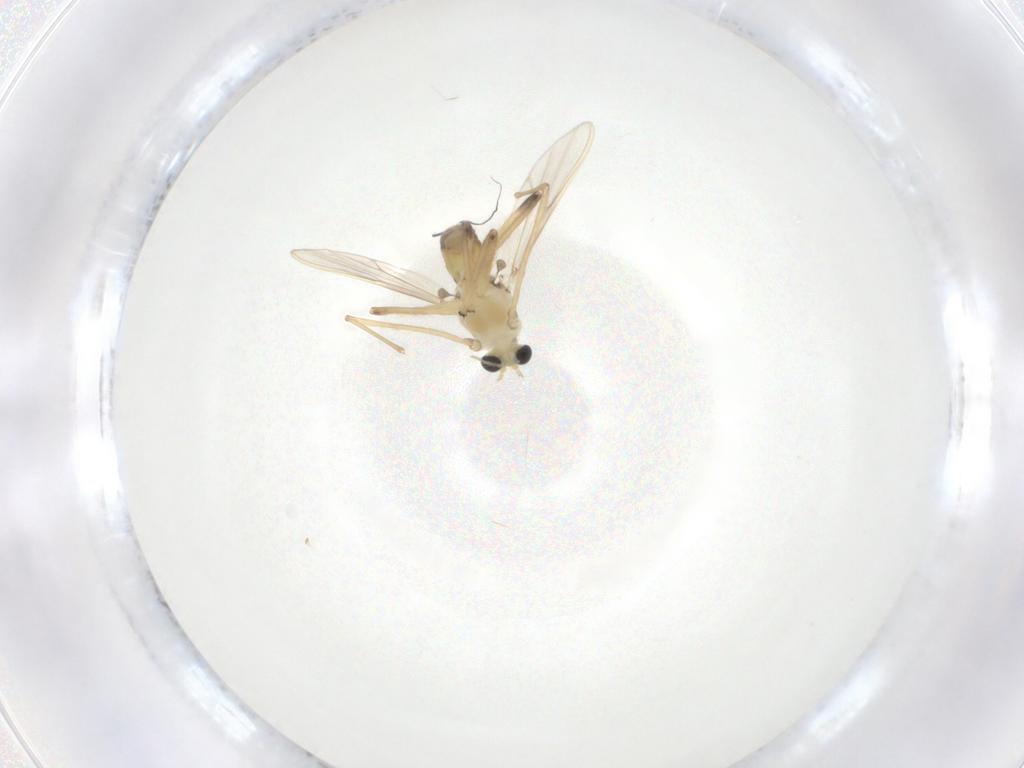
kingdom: Animalia
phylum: Arthropoda
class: Insecta
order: Diptera
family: Chironomidae
